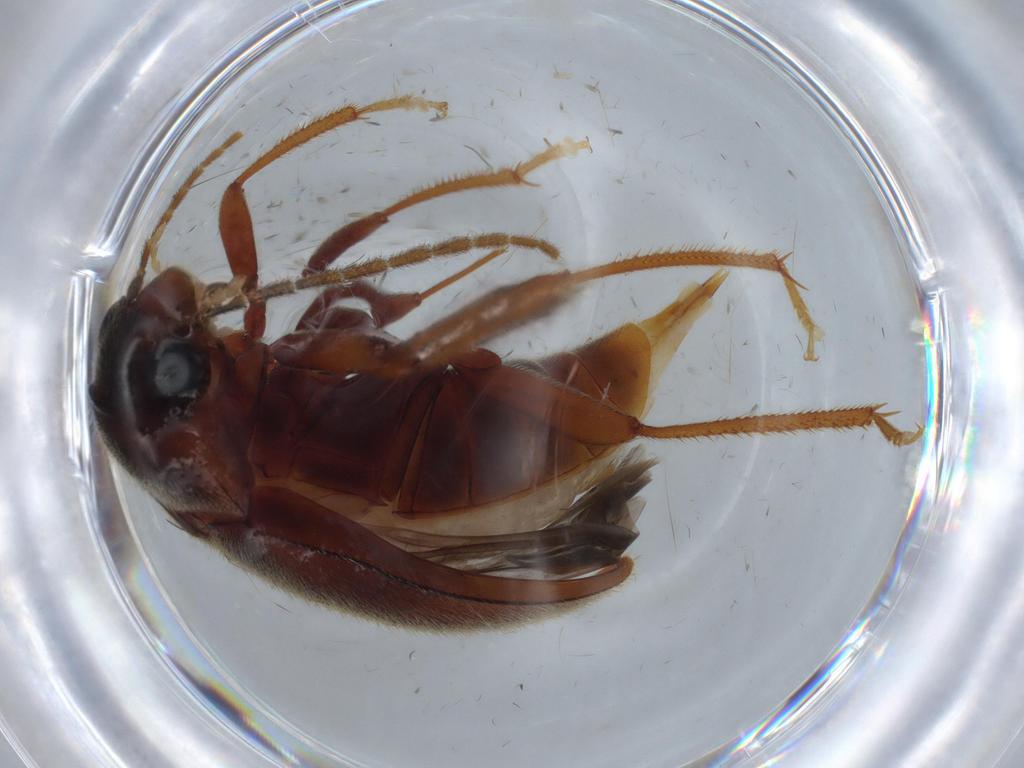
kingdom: Animalia
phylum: Arthropoda
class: Insecta
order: Coleoptera
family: Ptilodactylidae
